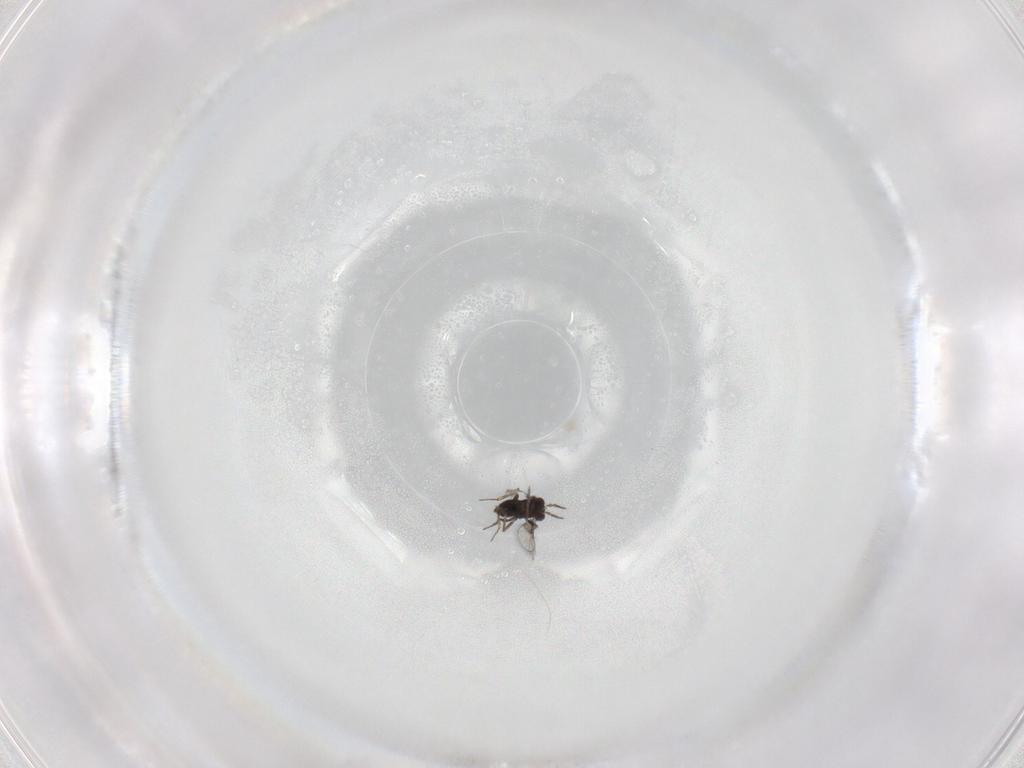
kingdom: Animalia
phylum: Arthropoda
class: Insecta
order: Hymenoptera
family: Trichogrammatidae
